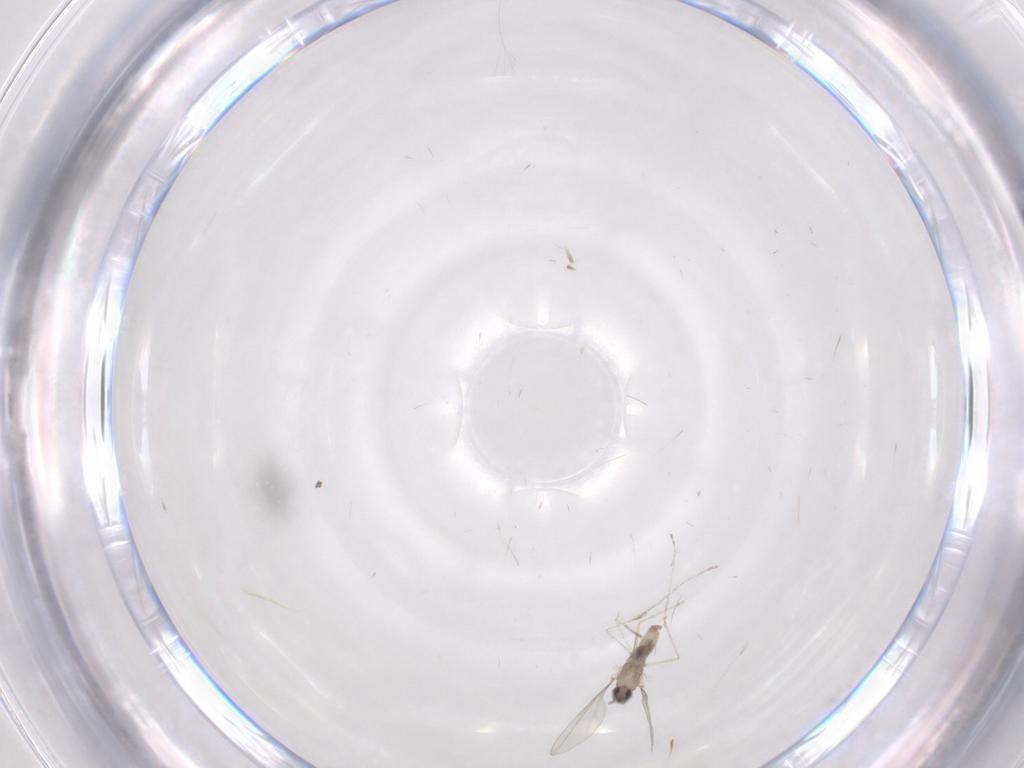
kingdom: Animalia
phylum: Arthropoda
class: Insecta
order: Diptera
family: Cecidomyiidae
